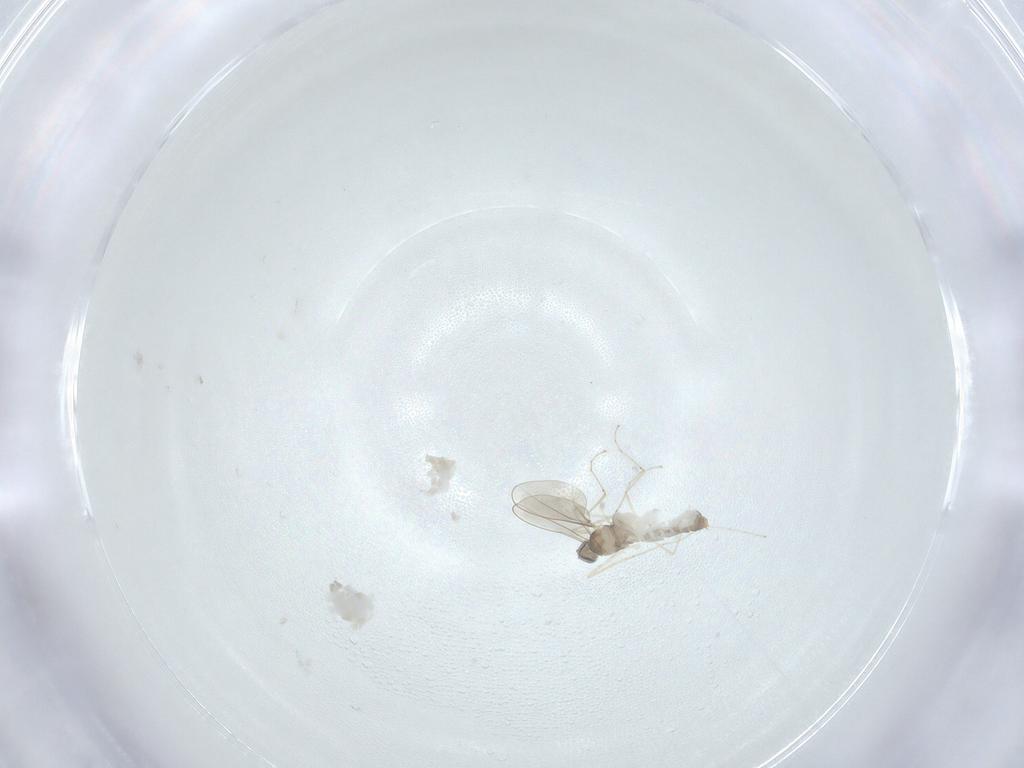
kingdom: Animalia
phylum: Arthropoda
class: Insecta
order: Diptera
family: Cecidomyiidae
